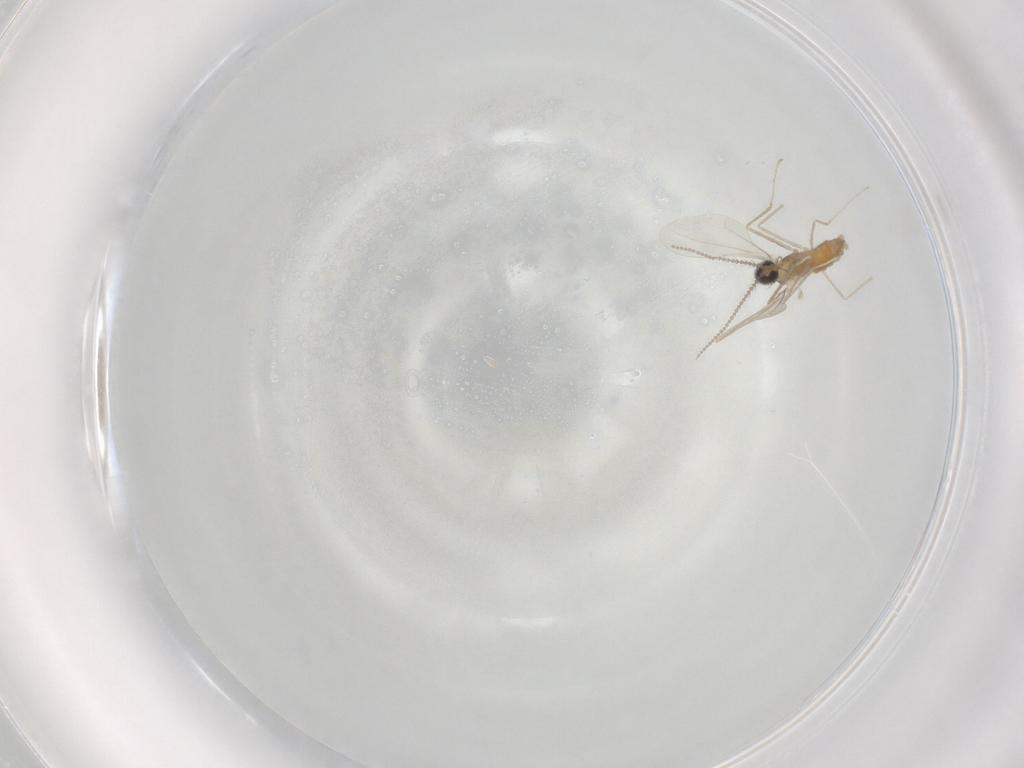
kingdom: Animalia
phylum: Arthropoda
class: Insecta
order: Diptera
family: Cecidomyiidae
